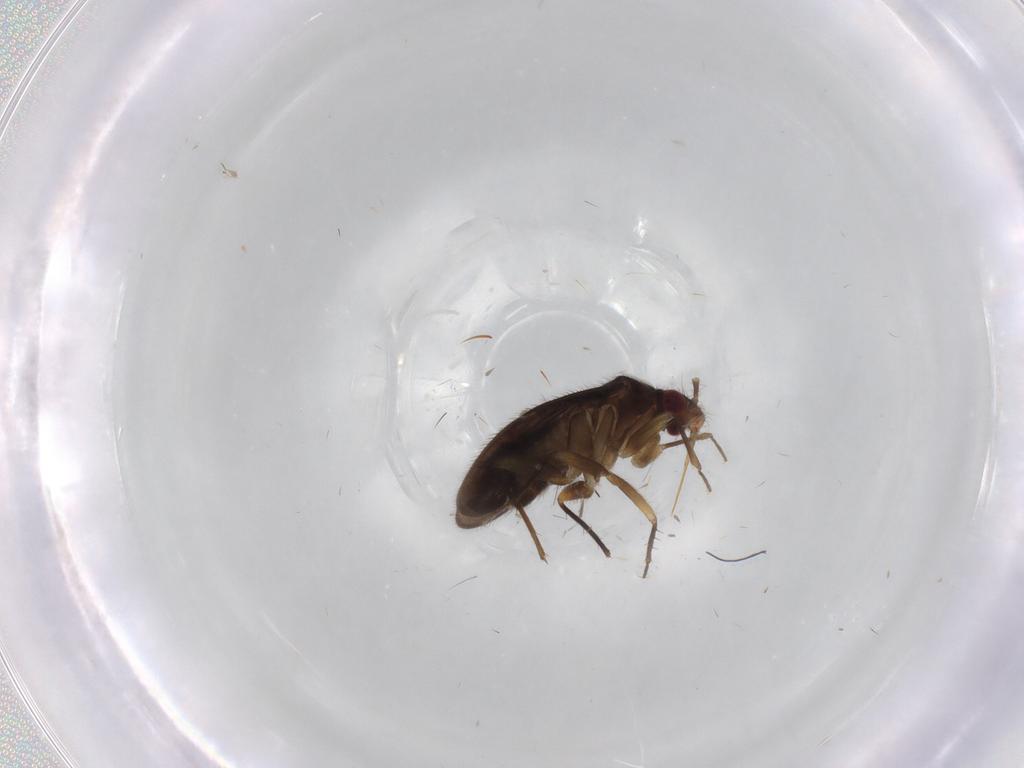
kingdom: Animalia
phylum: Arthropoda
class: Insecta
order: Hemiptera
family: Ceratocombidae
